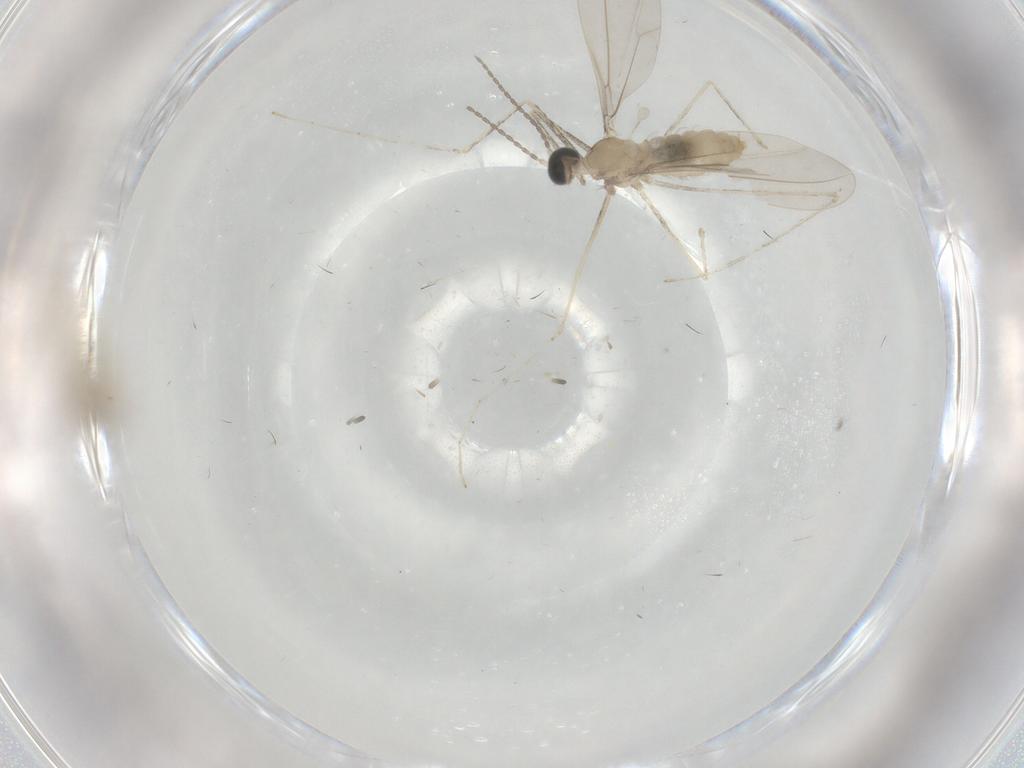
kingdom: Animalia
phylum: Arthropoda
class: Insecta
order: Diptera
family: Cecidomyiidae
